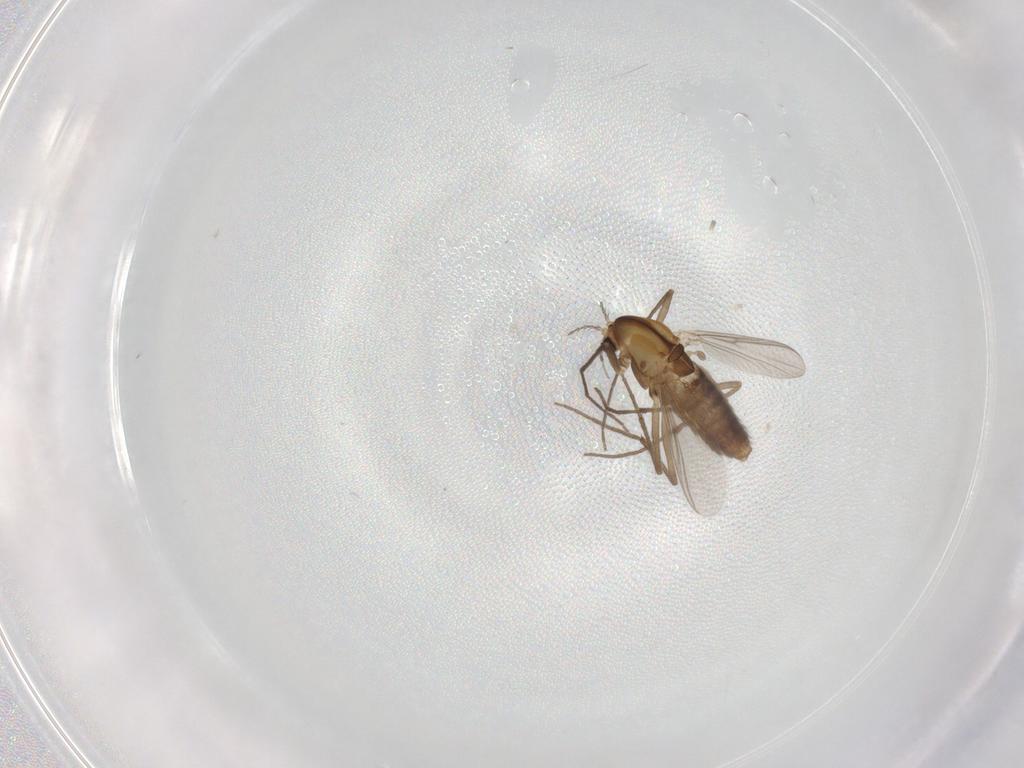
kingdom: Animalia
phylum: Arthropoda
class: Insecta
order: Diptera
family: Chironomidae
